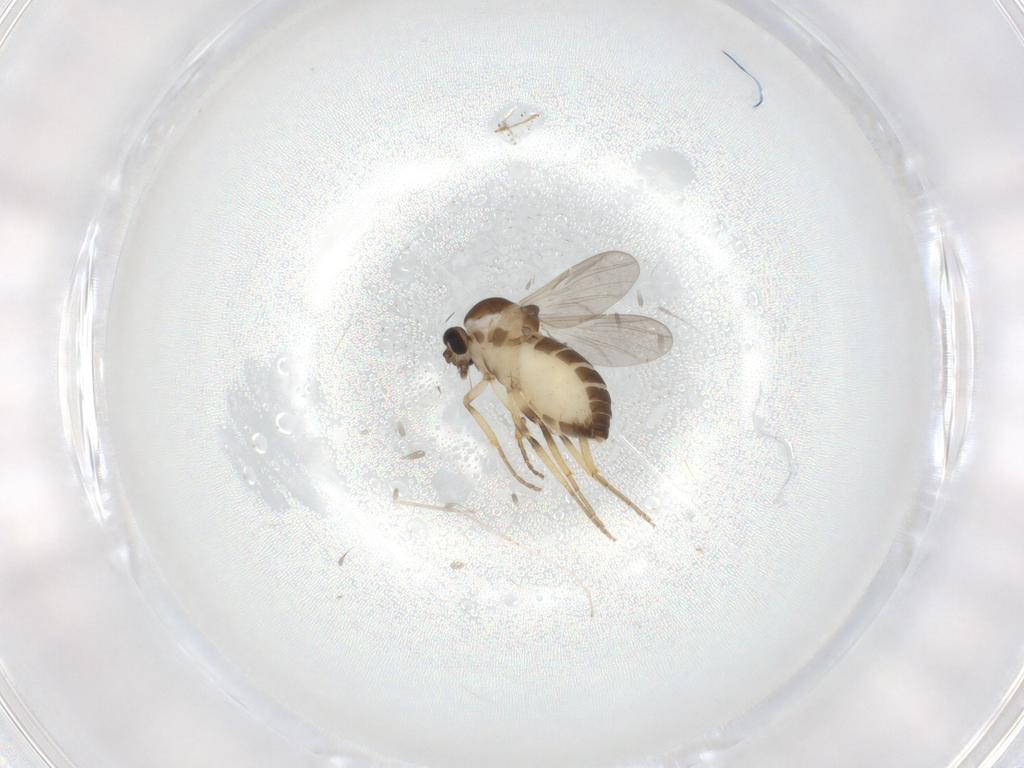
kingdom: Animalia
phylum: Arthropoda
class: Insecta
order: Diptera
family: Ceratopogonidae
